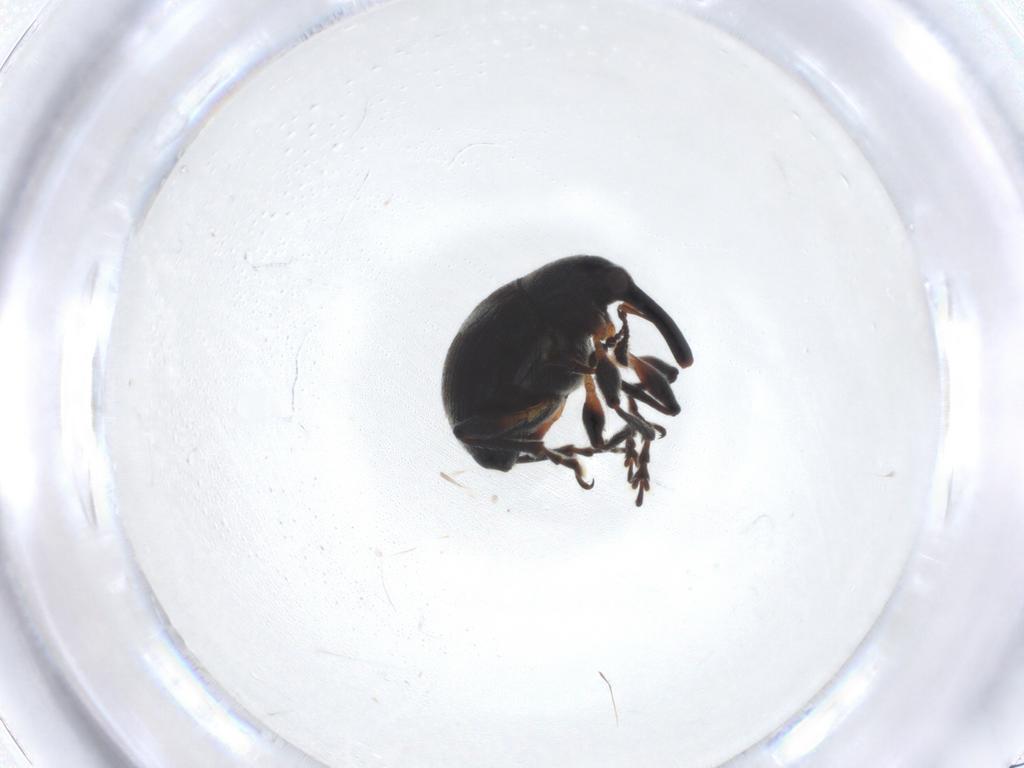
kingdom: Animalia
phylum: Arthropoda
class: Insecta
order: Coleoptera
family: Brentidae
